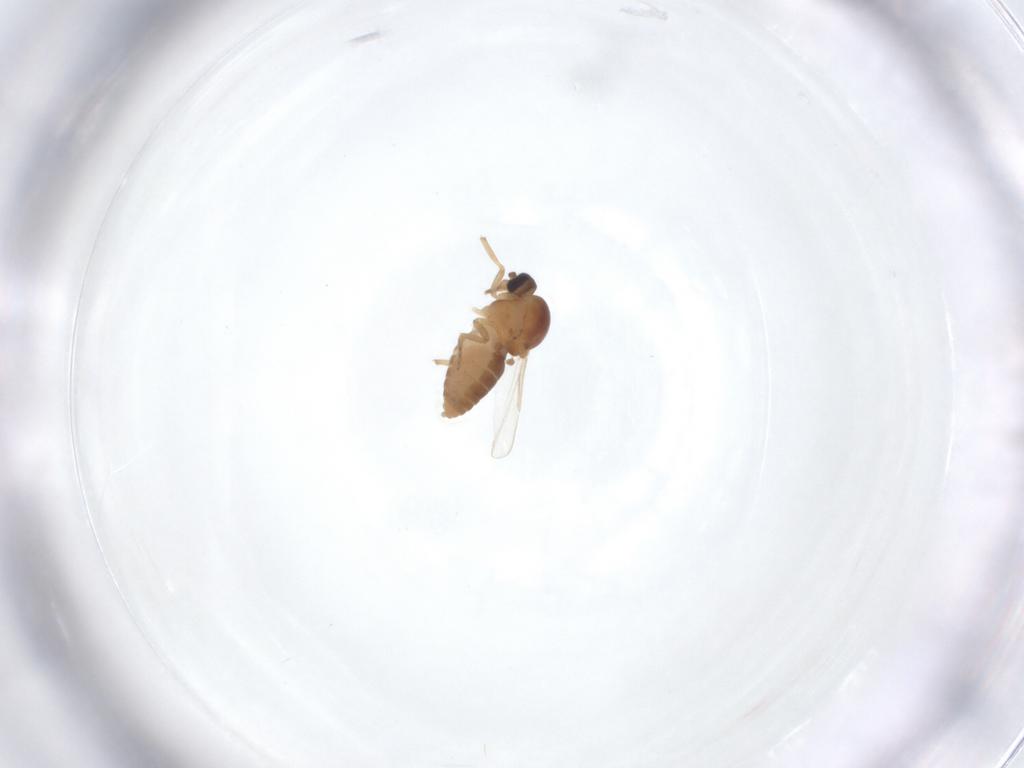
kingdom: Animalia
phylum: Arthropoda
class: Insecta
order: Diptera
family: Ceratopogonidae
